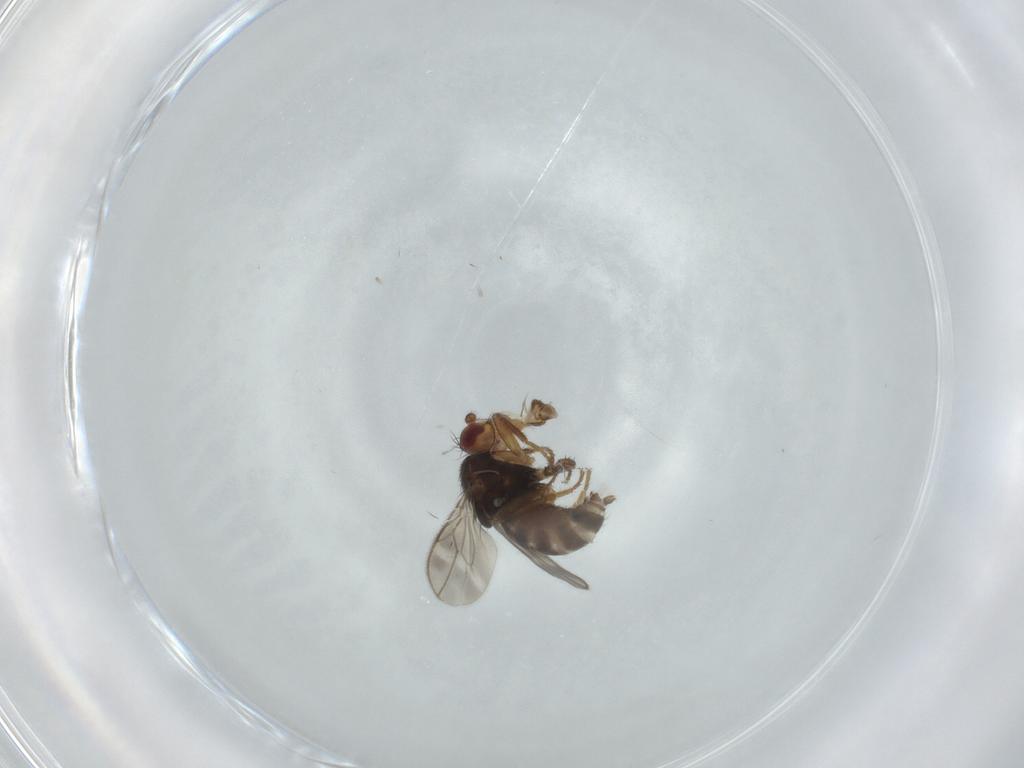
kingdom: Animalia
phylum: Arthropoda
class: Insecta
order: Diptera
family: Sphaeroceridae
